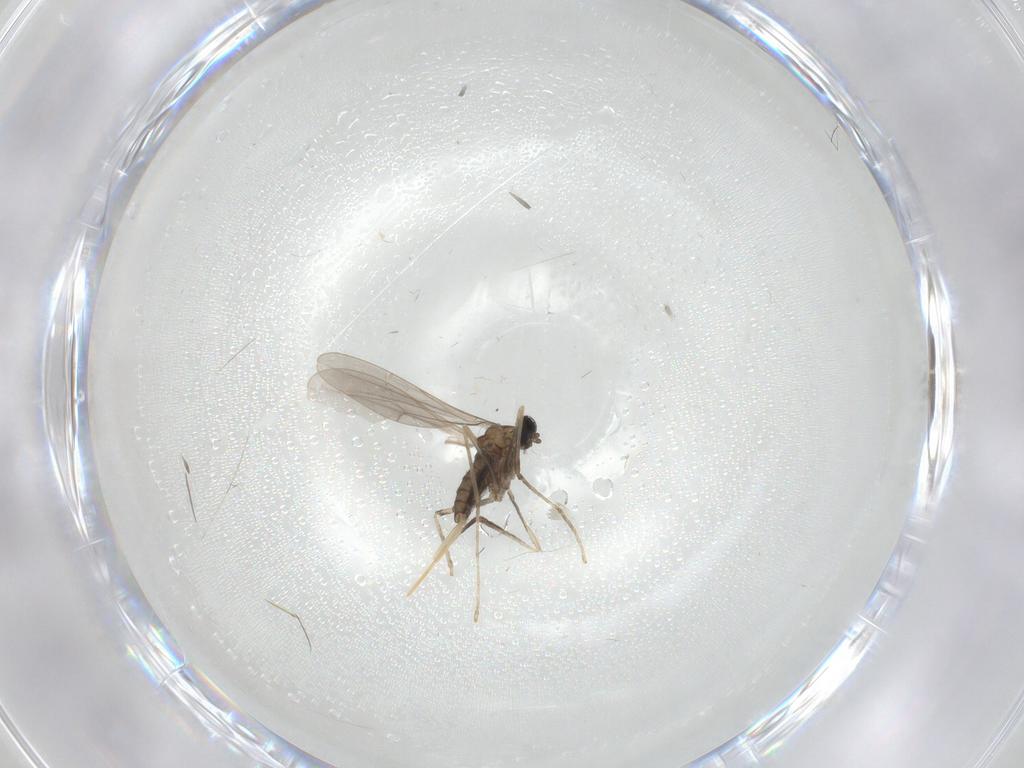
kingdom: Animalia
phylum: Arthropoda
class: Insecta
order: Diptera
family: Cecidomyiidae
